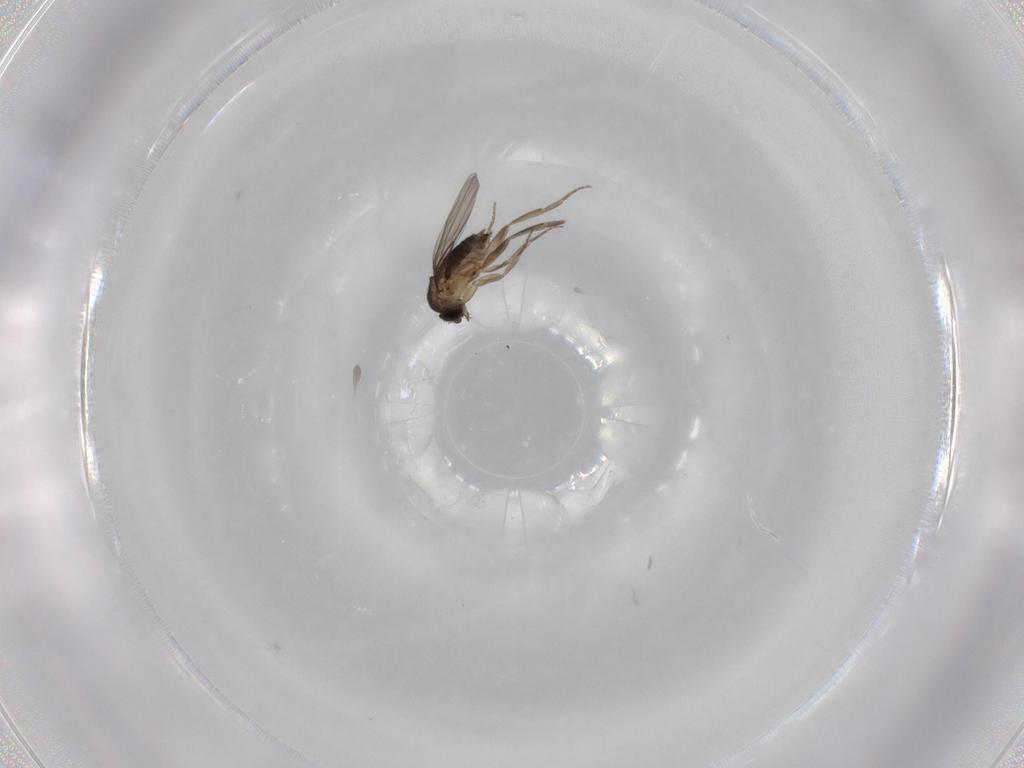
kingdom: Animalia
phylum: Arthropoda
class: Insecta
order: Diptera
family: Phoridae
